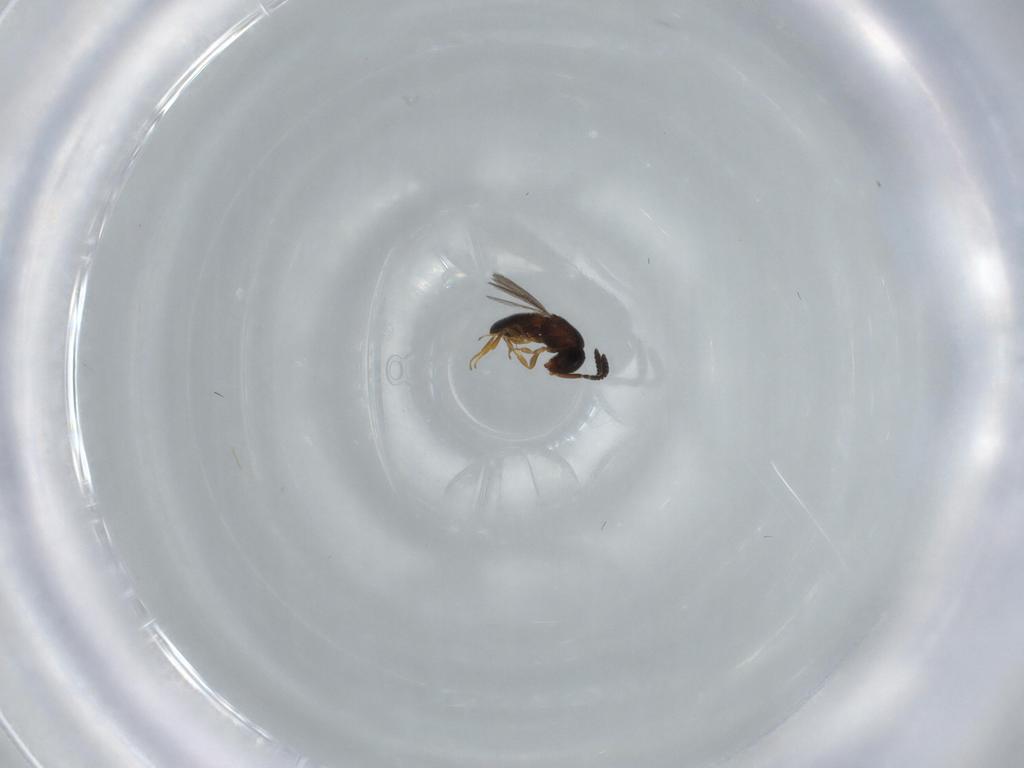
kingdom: Animalia
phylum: Arthropoda
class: Insecta
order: Hymenoptera
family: Scelionidae
